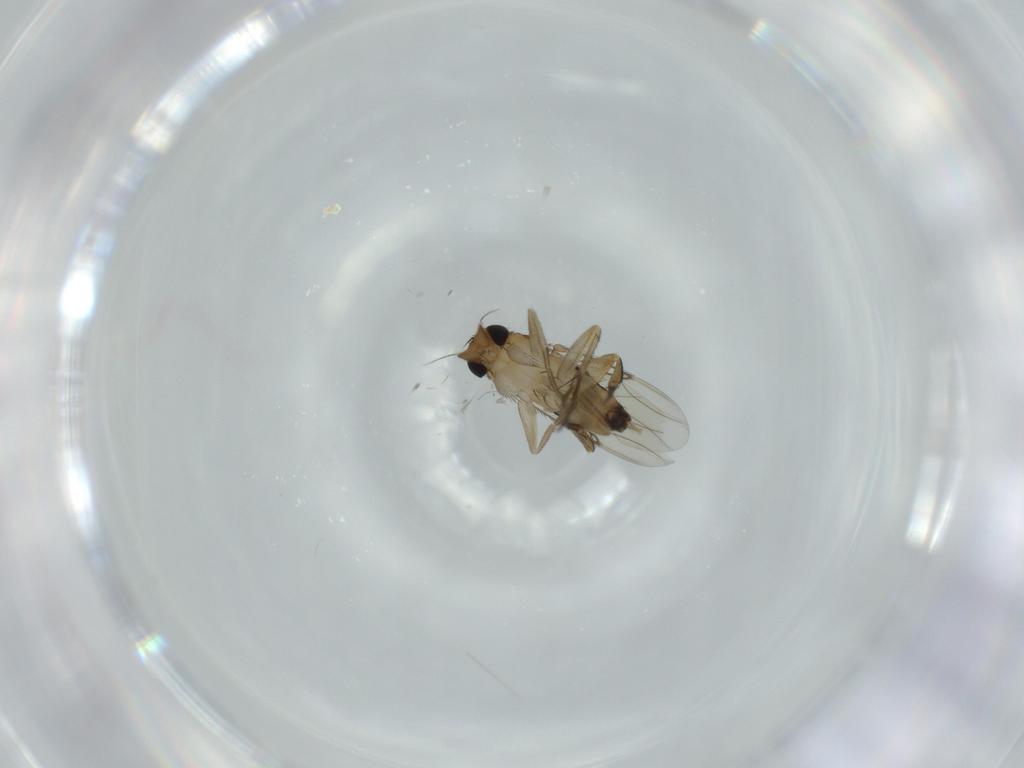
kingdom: Animalia
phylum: Arthropoda
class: Insecta
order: Diptera
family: Phoridae
